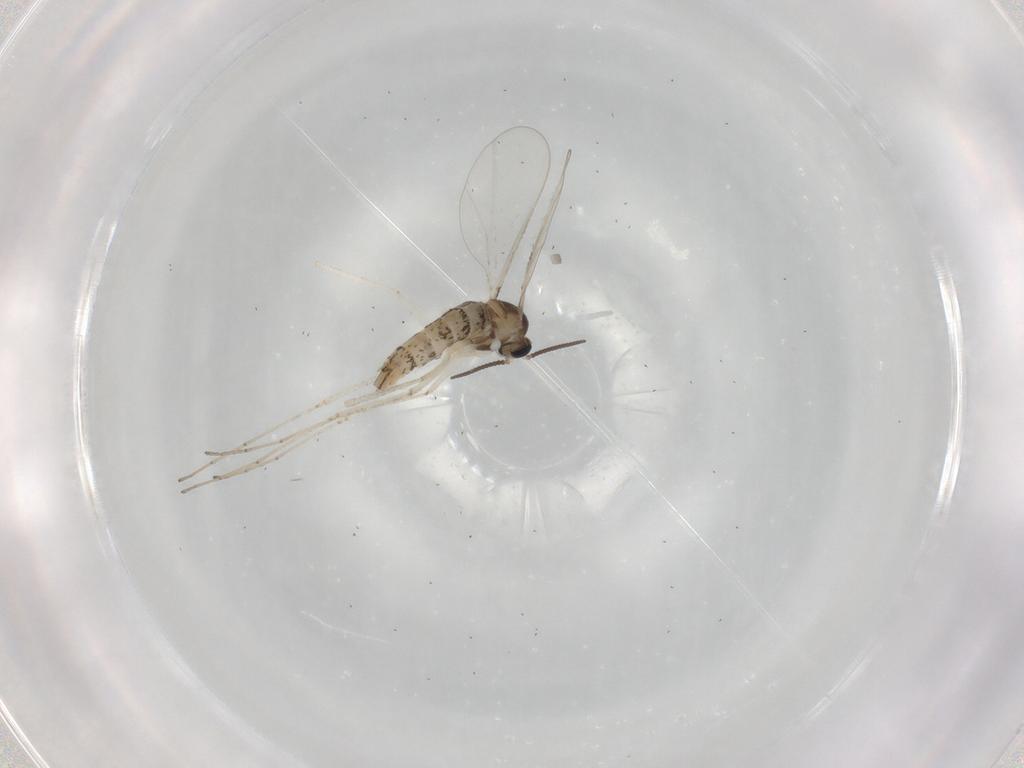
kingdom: Animalia
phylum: Arthropoda
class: Insecta
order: Diptera
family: Cecidomyiidae
